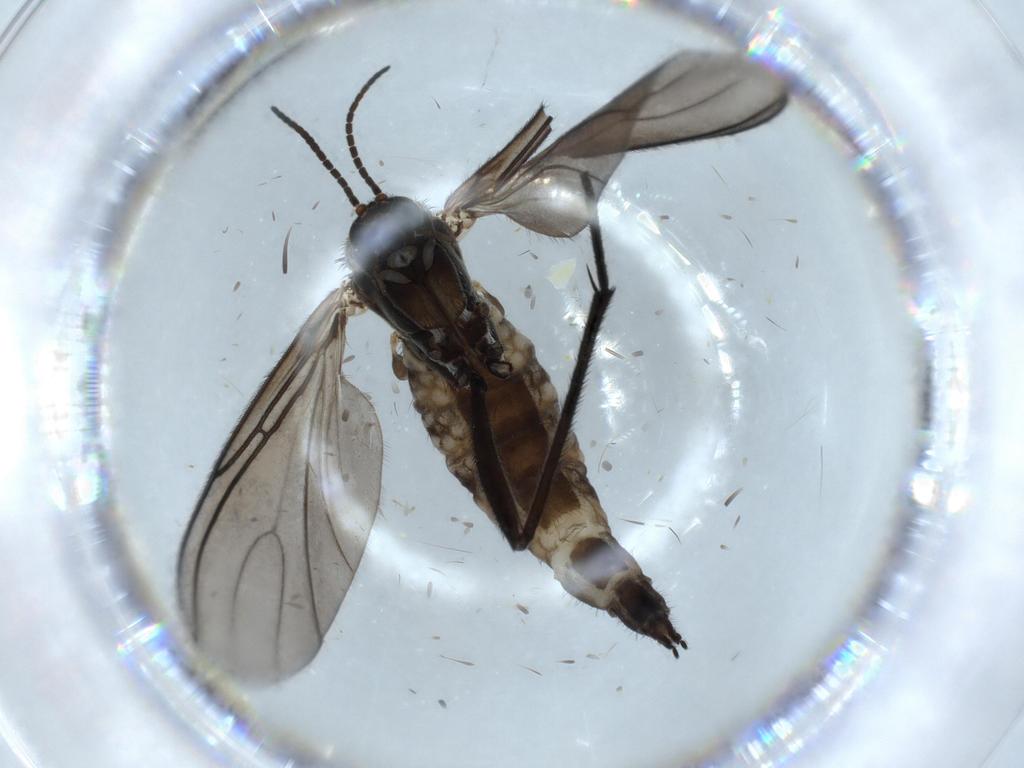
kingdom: Animalia
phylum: Arthropoda
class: Insecta
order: Diptera
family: Sciaridae
